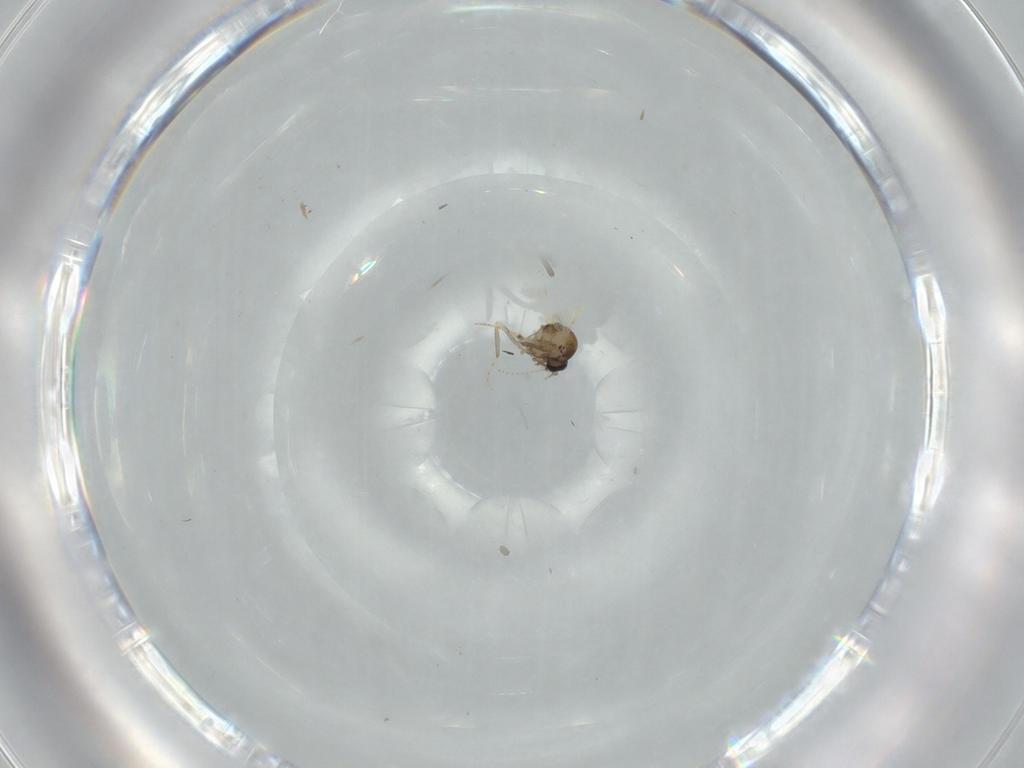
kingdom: Animalia
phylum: Arthropoda
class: Insecta
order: Diptera
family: Ceratopogonidae
